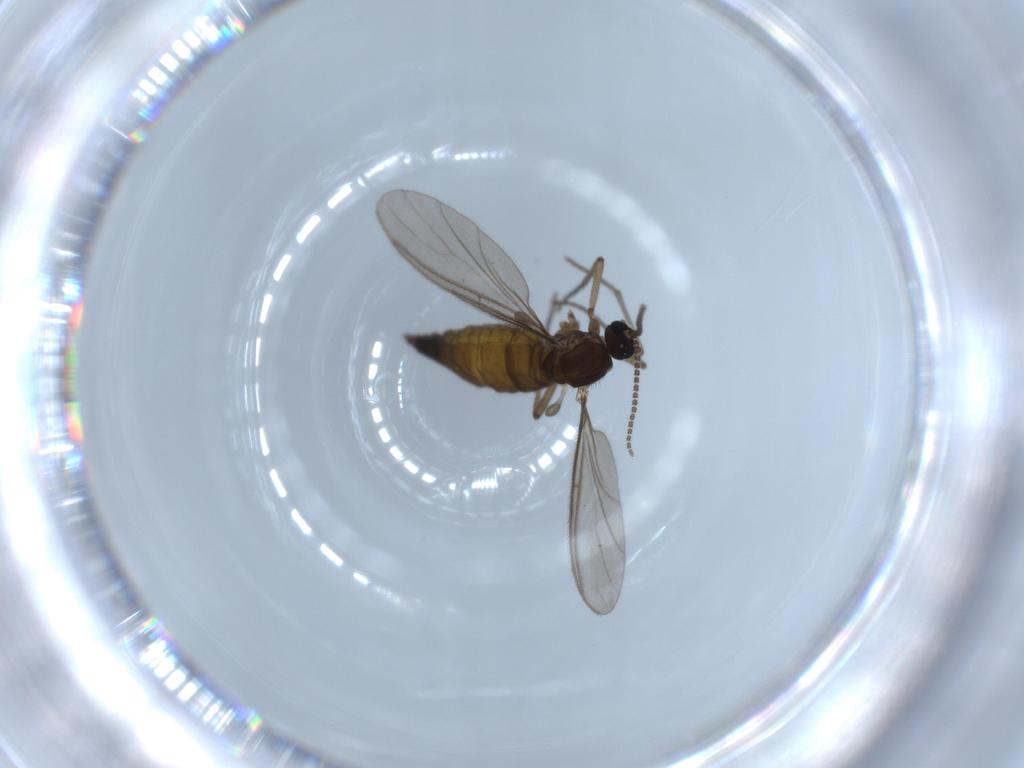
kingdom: Animalia
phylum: Arthropoda
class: Insecta
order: Diptera
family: Sciaridae
